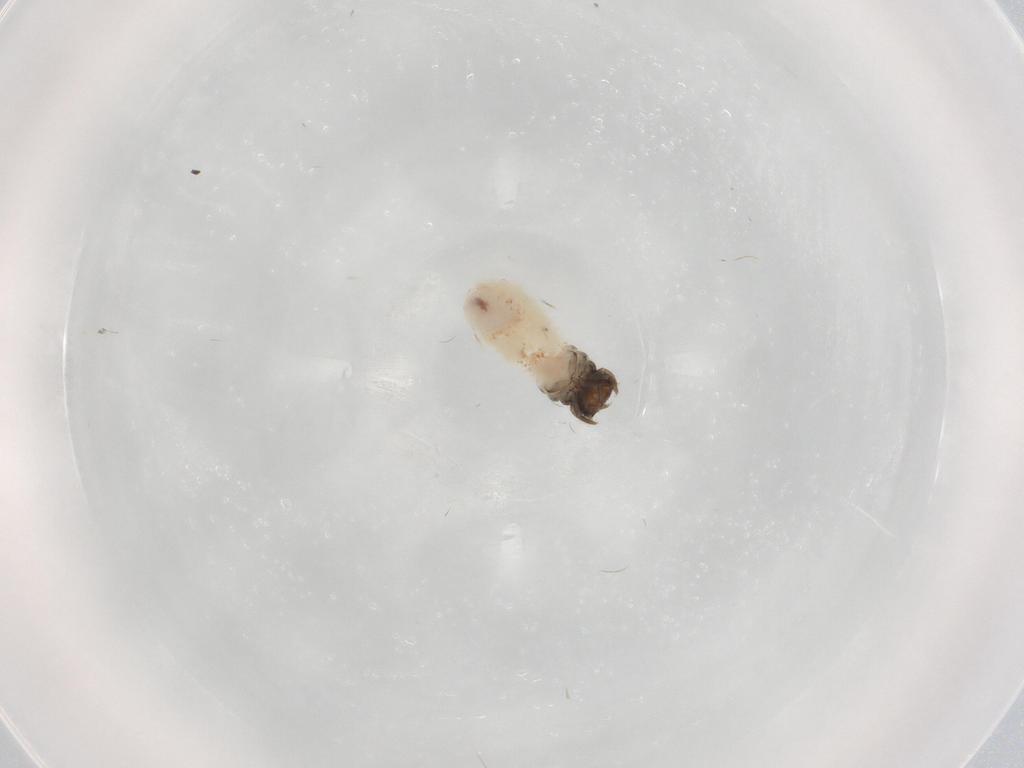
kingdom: Animalia
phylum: Arthropoda
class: Insecta
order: Coleoptera
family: Chrysomelidae
